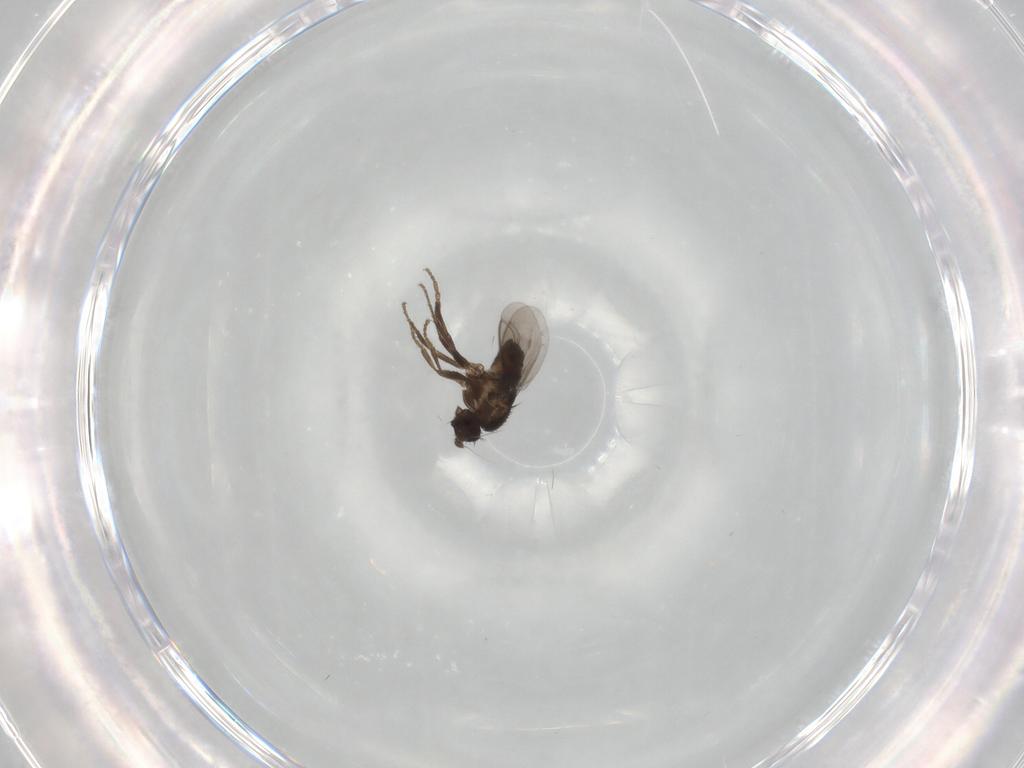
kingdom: Animalia
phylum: Arthropoda
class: Insecta
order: Diptera
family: Sphaeroceridae
